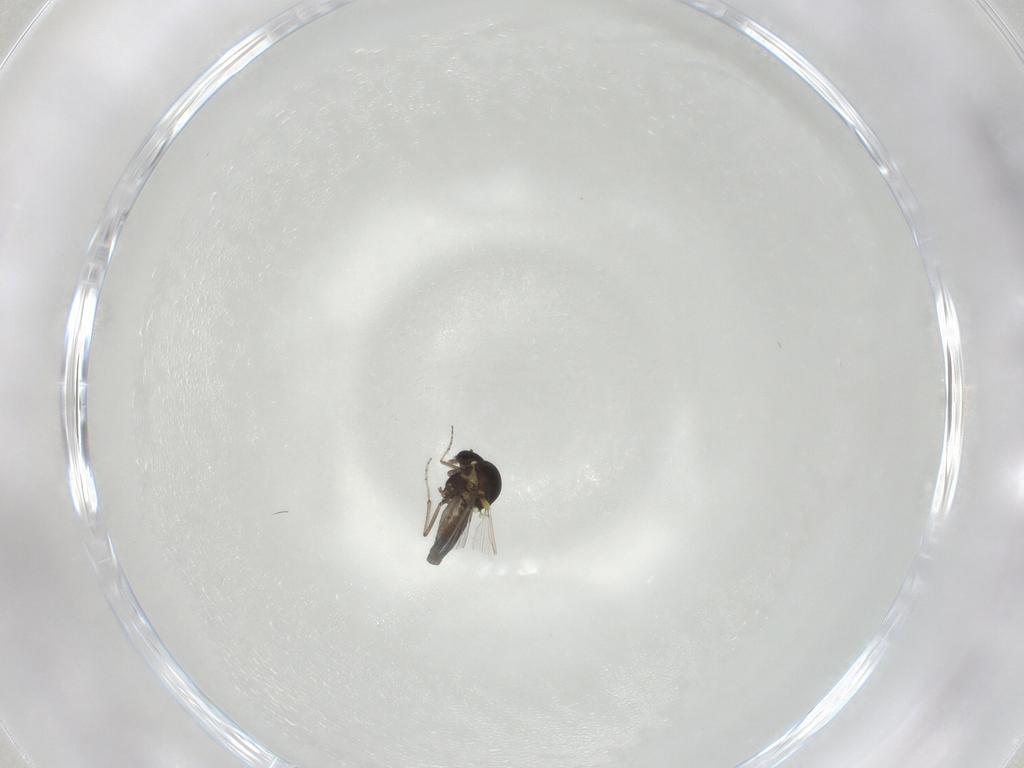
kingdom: Animalia
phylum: Arthropoda
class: Insecta
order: Diptera
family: Ceratopogonidae
